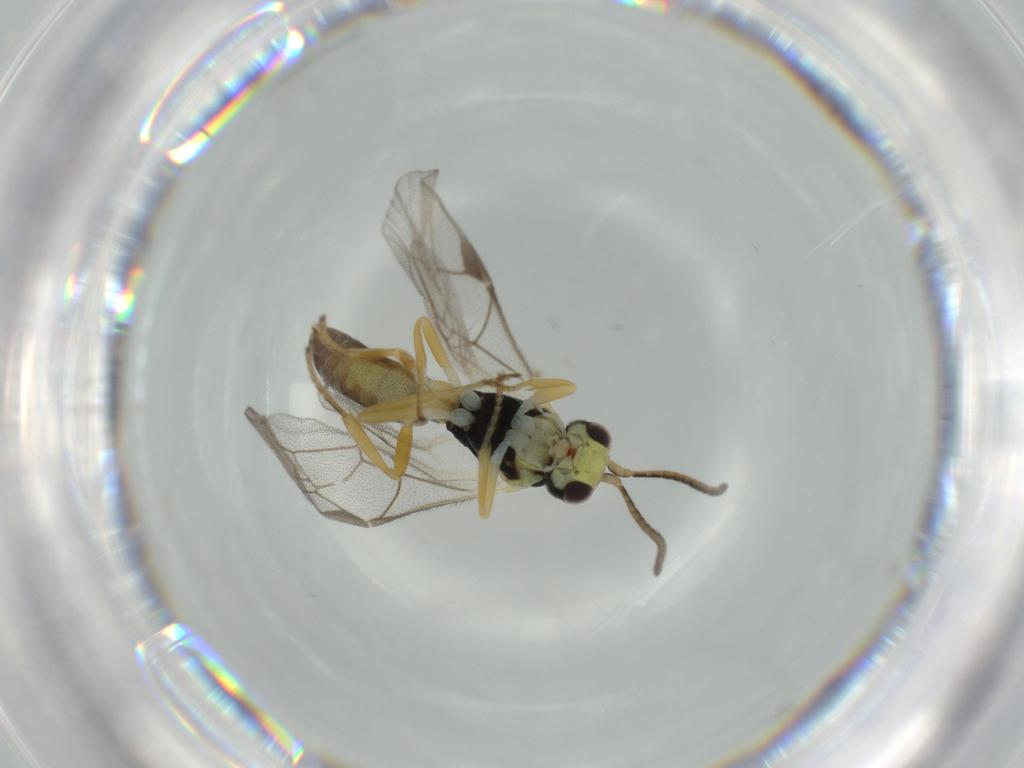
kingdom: Animalia
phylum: Arthropoda
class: Insecta
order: Hymenoptera
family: Ichneumonidae
